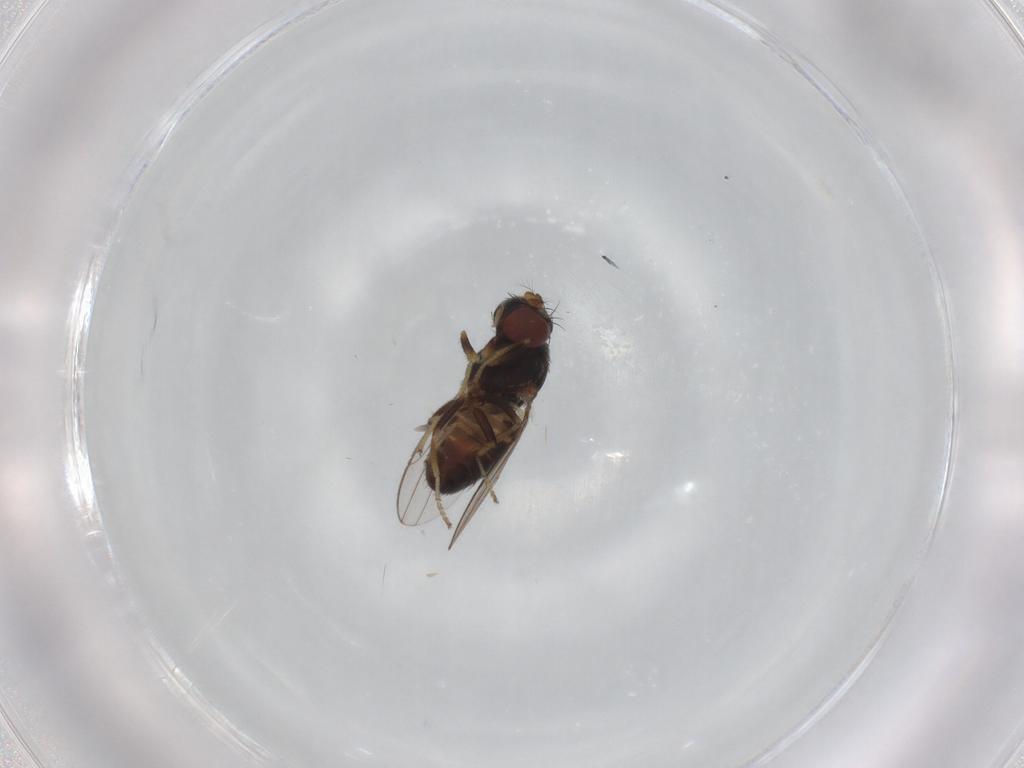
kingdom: Animalia
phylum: Arthropoda
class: Insecta
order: Diptera
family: Ephydridae
